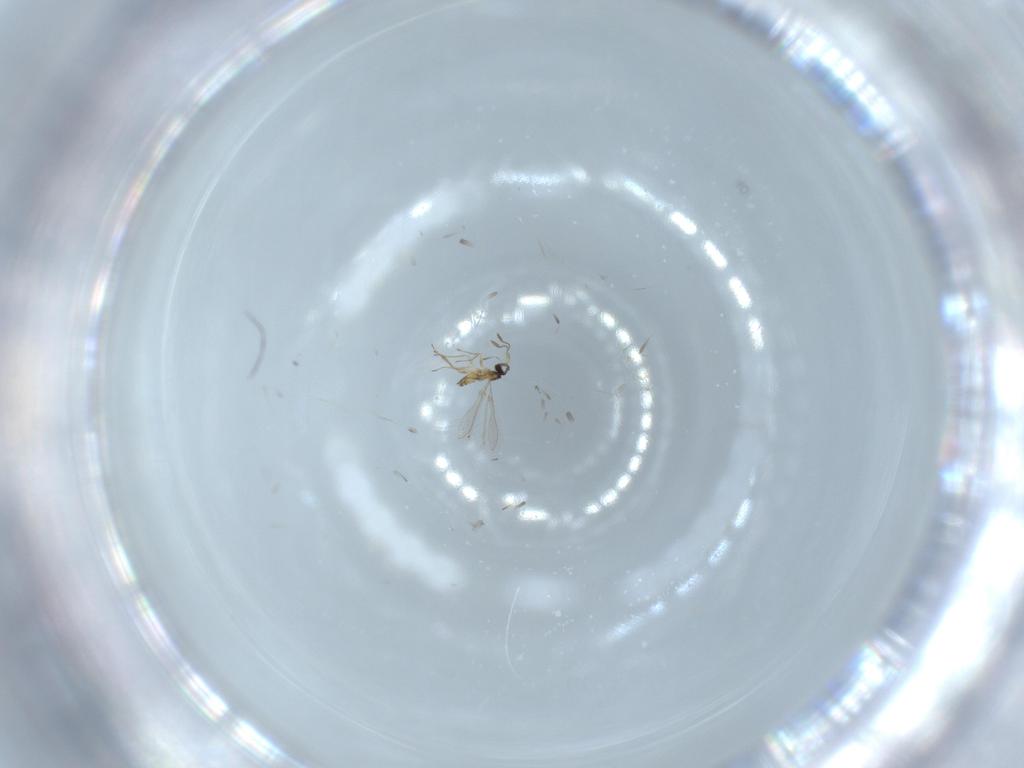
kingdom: Animalia
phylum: Arthropoda
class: Insecta
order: Hymenoptera
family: Mymaridae
